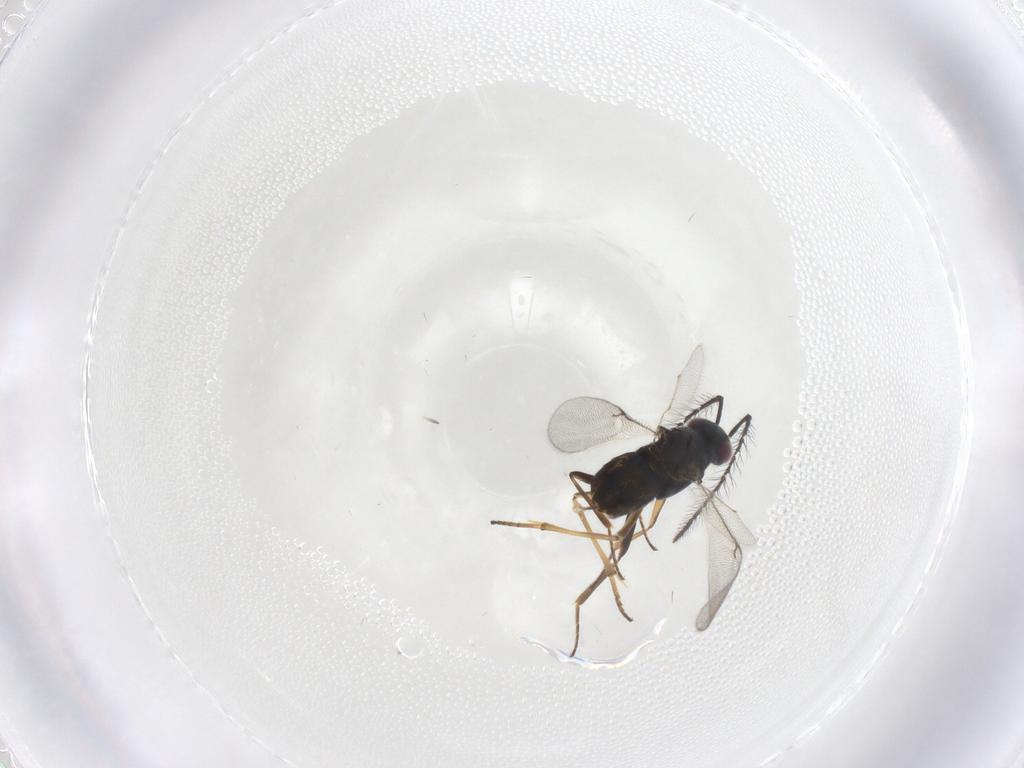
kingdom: Animalia
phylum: Arthropoda
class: Insecta
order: Hymenoptera
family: Encyrtidae
